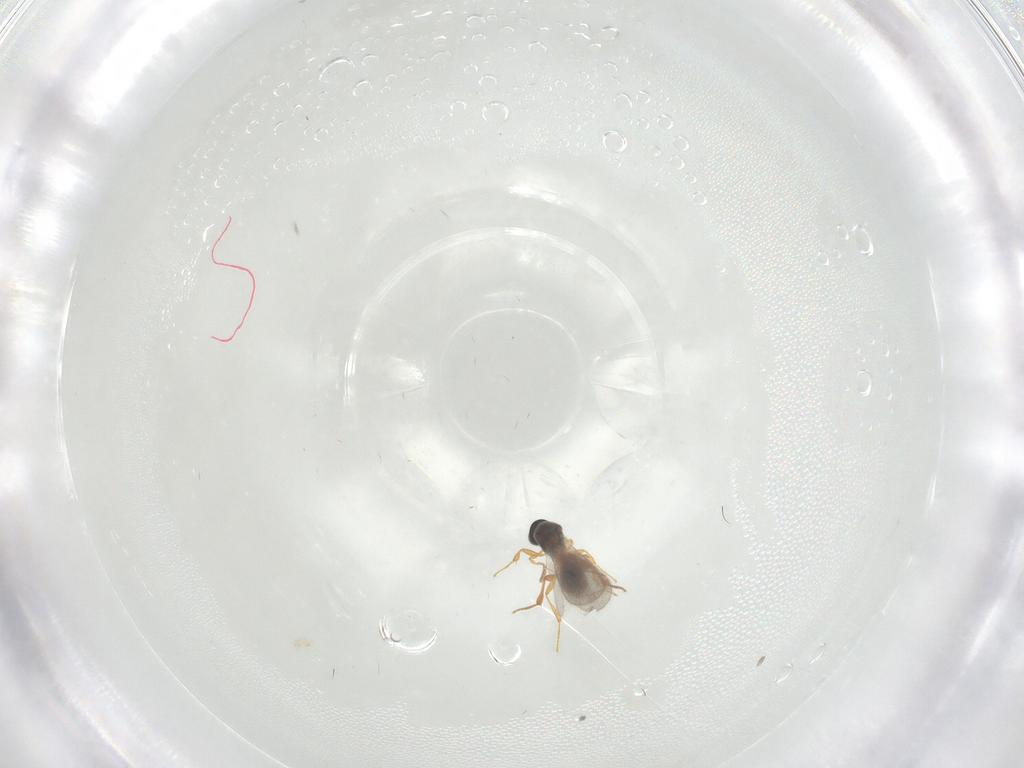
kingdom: Animalia
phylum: Arthropoda
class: Insecta
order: Hymenoptera
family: Platygastridae
